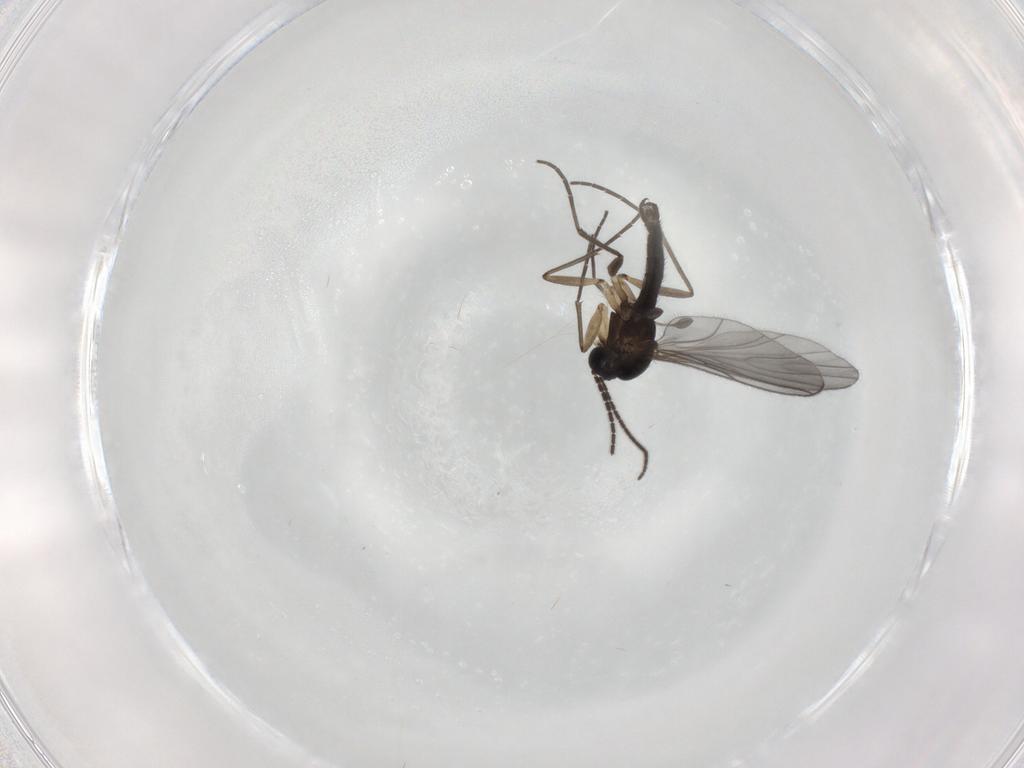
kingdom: Animalia
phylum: Arthropoda
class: Insecta
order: Diptera
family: Sciaridae
